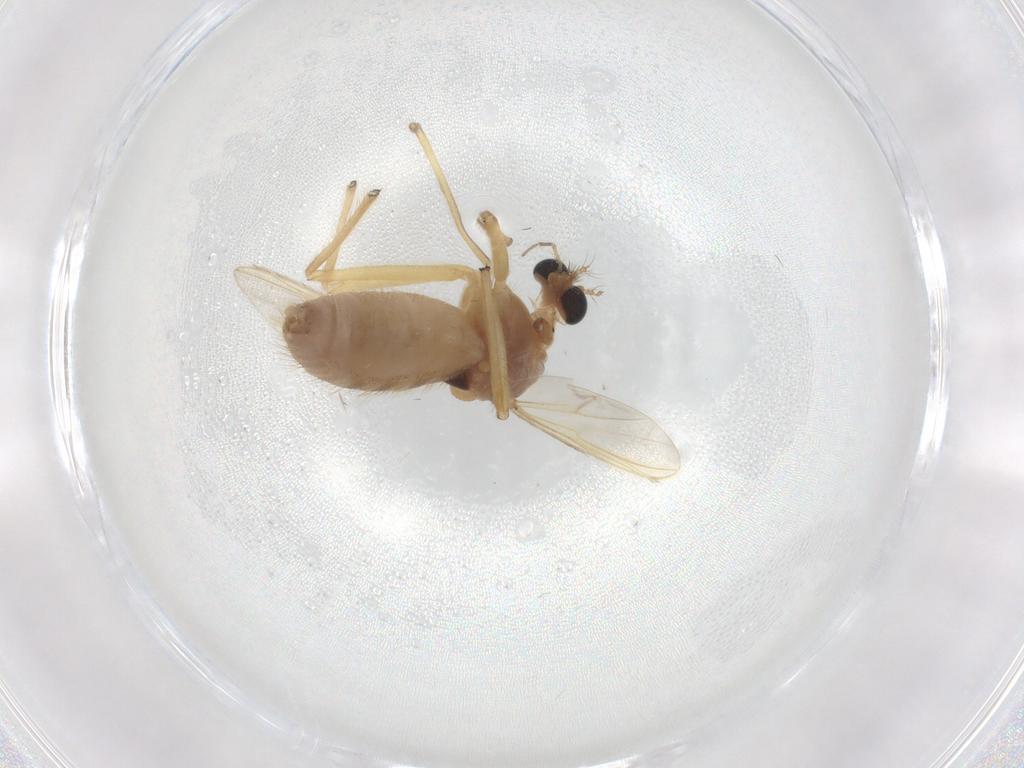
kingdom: Animalia
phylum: Arthropoda
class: Insecta
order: Diptera
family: Chironomidae
